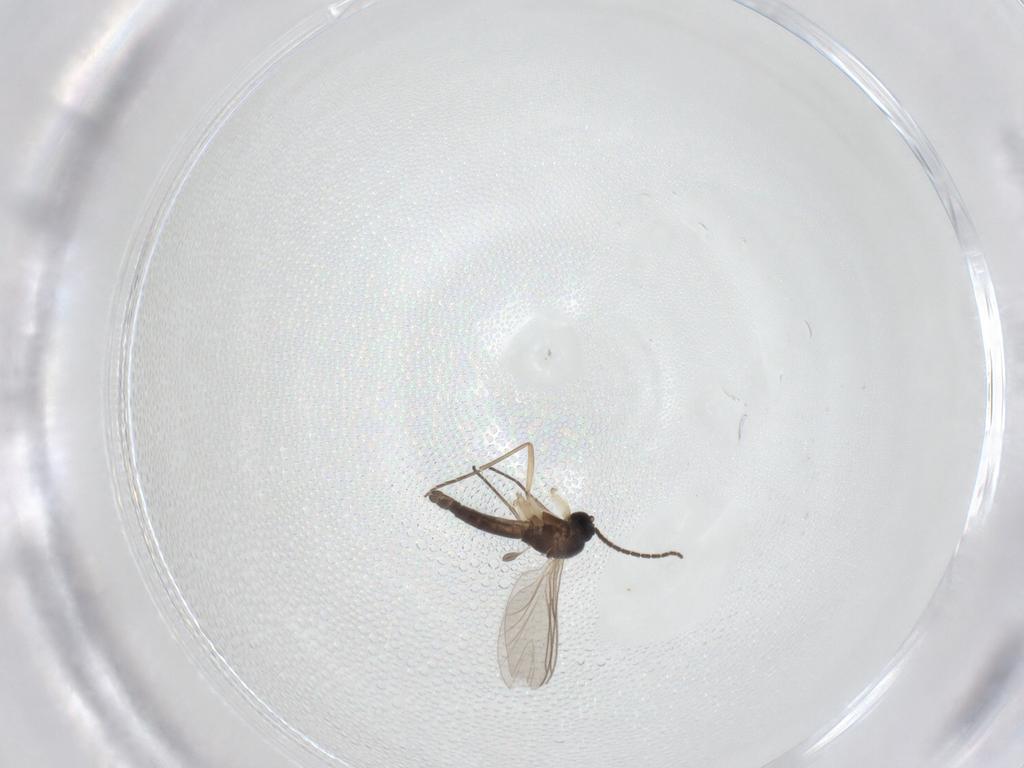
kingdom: Animalia
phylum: Arthropoda
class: Insecta
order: Diptera
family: Sciaridae
